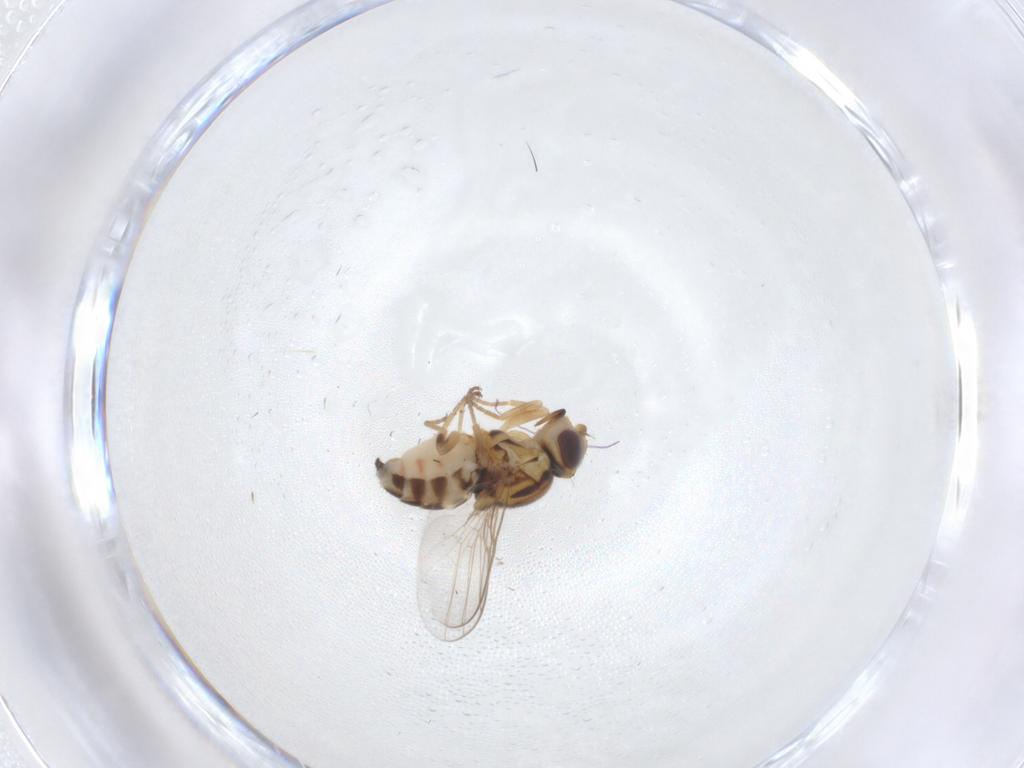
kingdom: Animalia
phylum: Arthropoda
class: Insecta
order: Diptera
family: Chloropidae
